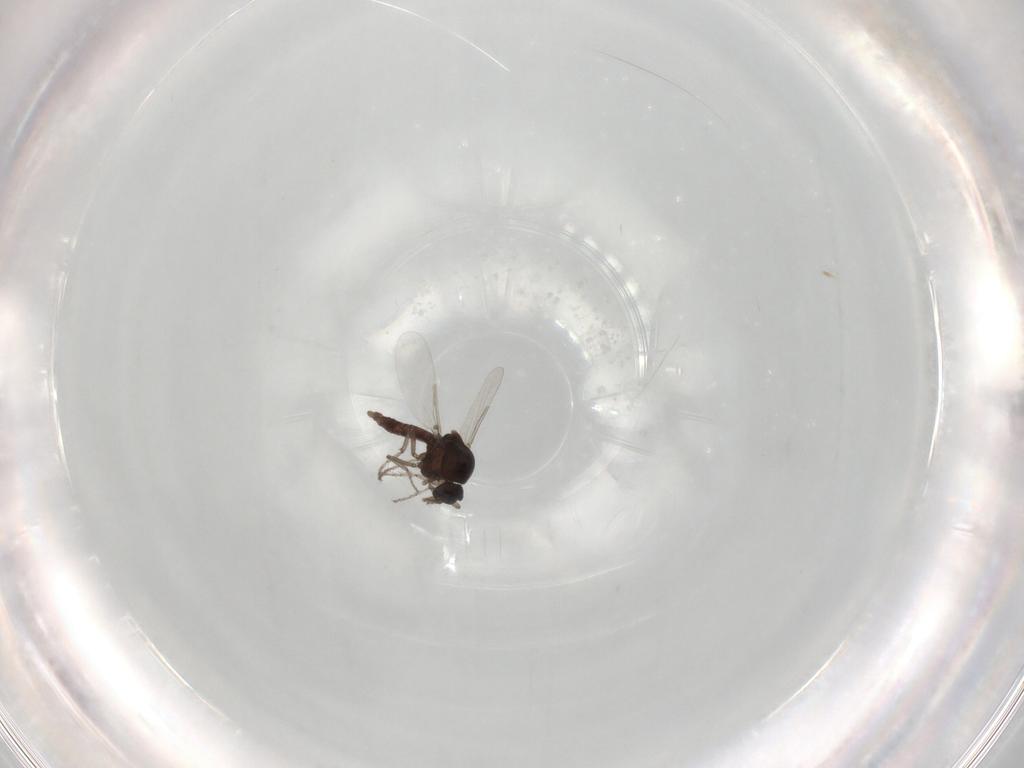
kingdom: Animalia
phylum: Arthropoda
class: Insecta
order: Diptera
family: Ceratopogonidae
